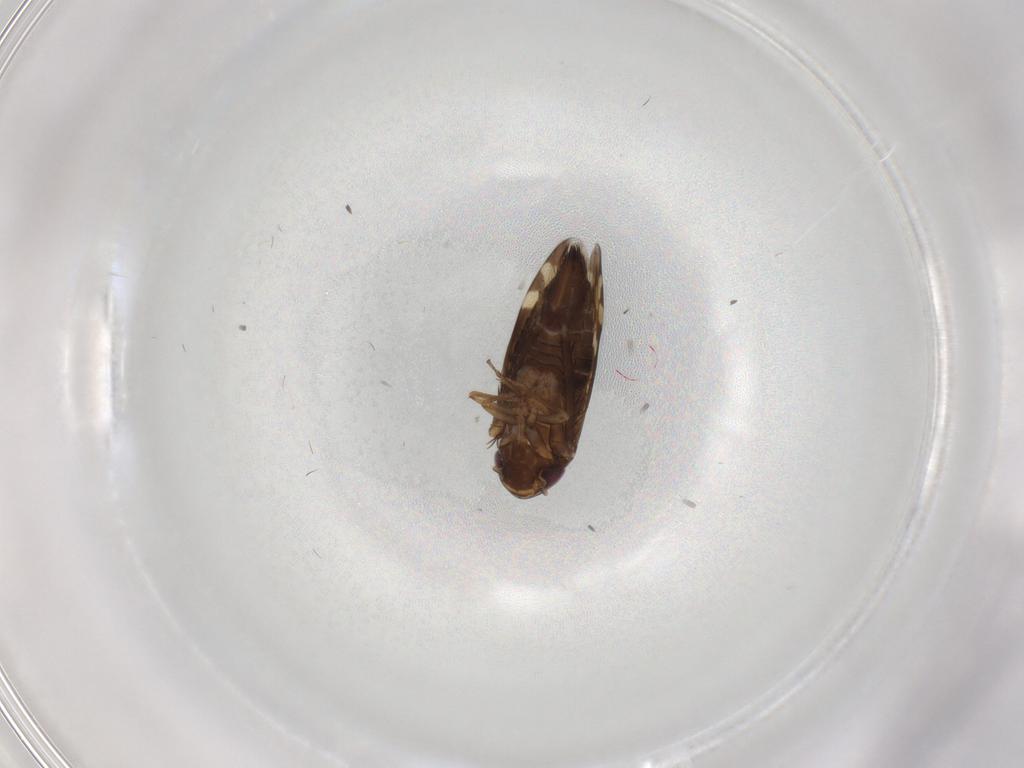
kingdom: Animalia
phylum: Arthropoda
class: Insecta
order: Hemiptera
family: Cicadellidae
